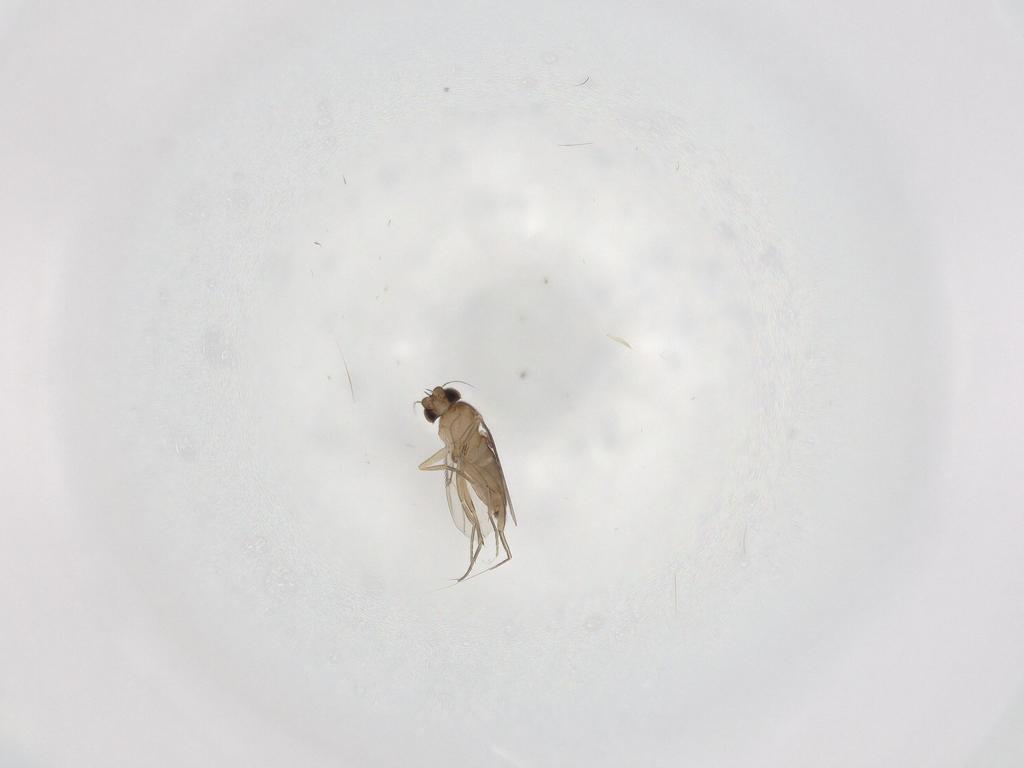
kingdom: Animalia
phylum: Arthropoda
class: Insecta
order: Diptera
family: Phoridae
